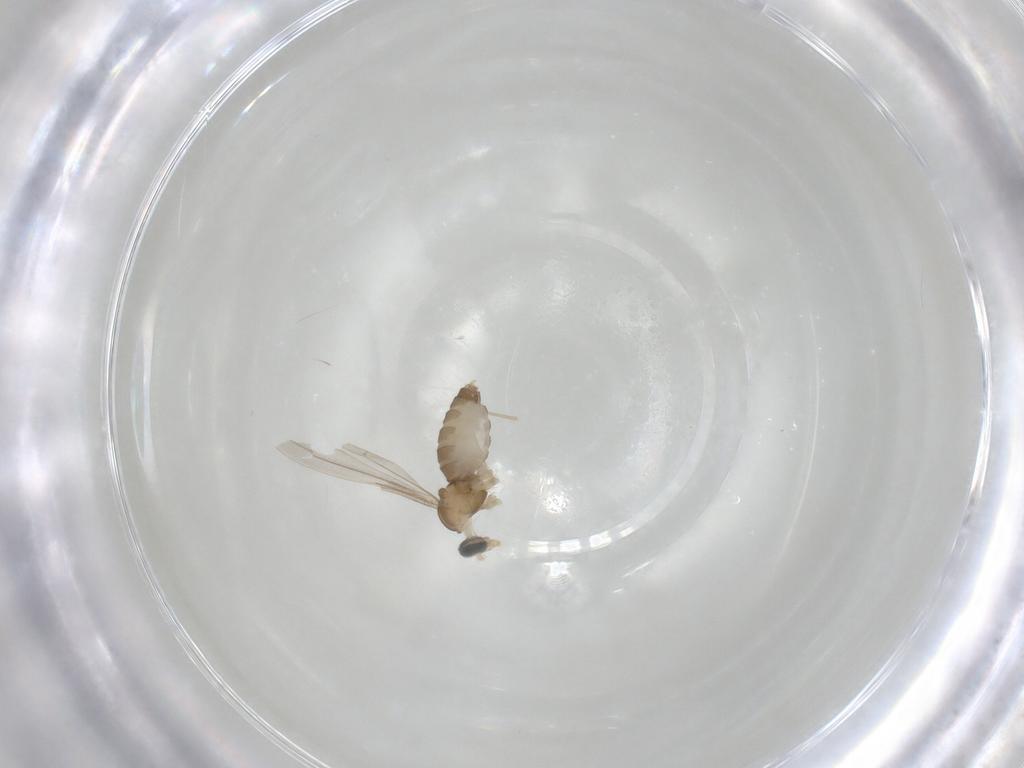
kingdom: Animalia
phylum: Arthropoda
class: Insecta
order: Diptera
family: Cecidomyiidae
